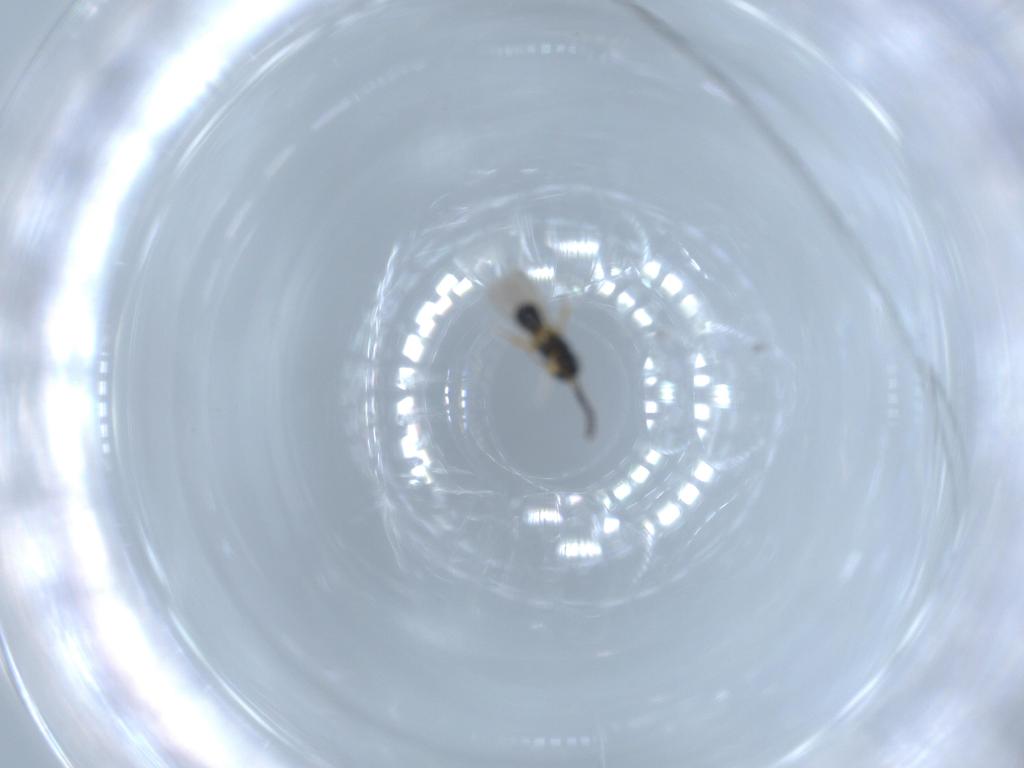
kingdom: Animalia
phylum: Arthropoda
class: Insecta
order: Hymenoptera
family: Scelionidae
